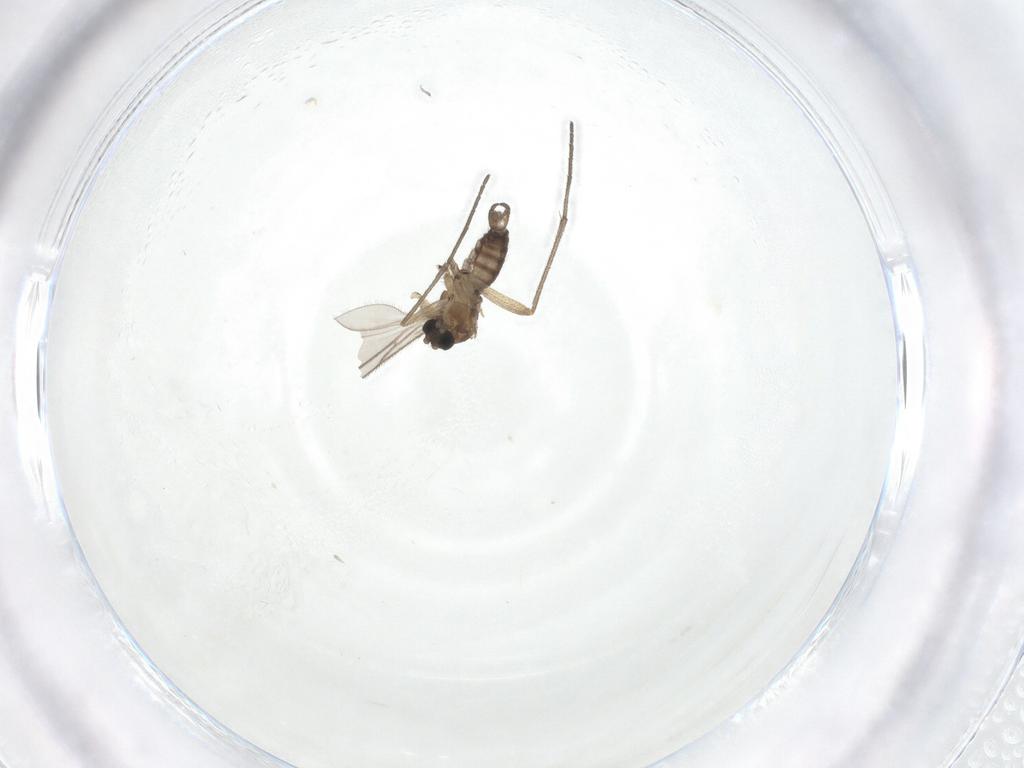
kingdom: Animalia
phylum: Arthropoda
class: Insecta
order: Diptera
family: Sciaridae
